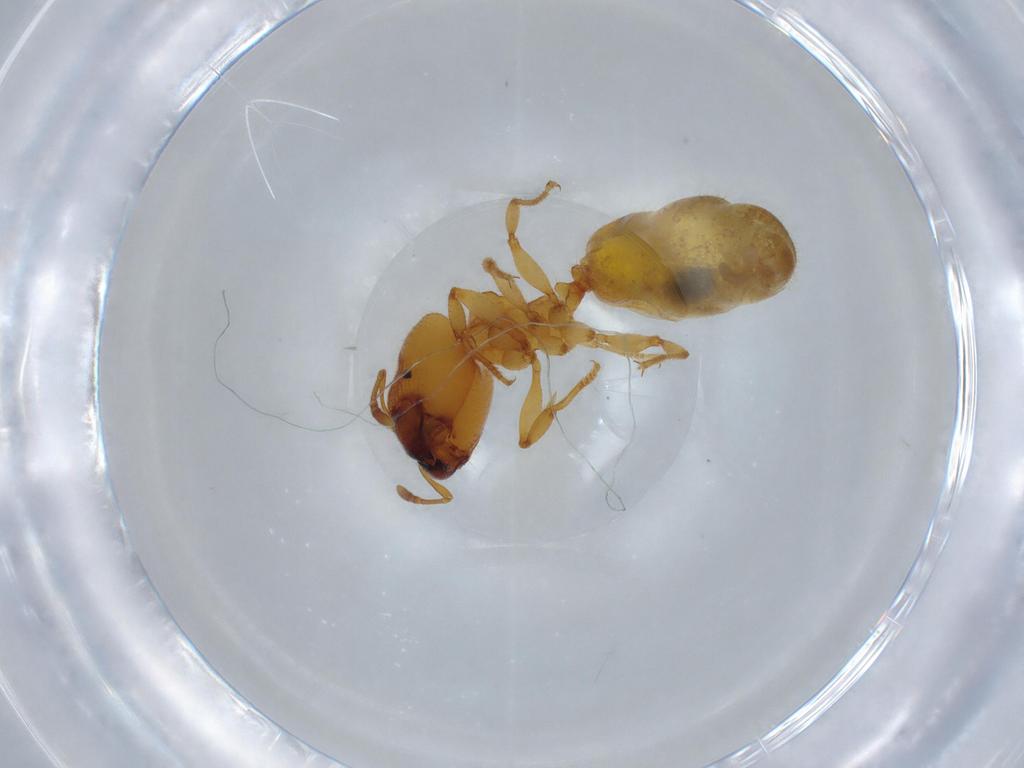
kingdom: Animalia
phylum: Arthropoda
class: Insecta
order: Hymenoptera
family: Formicidae
